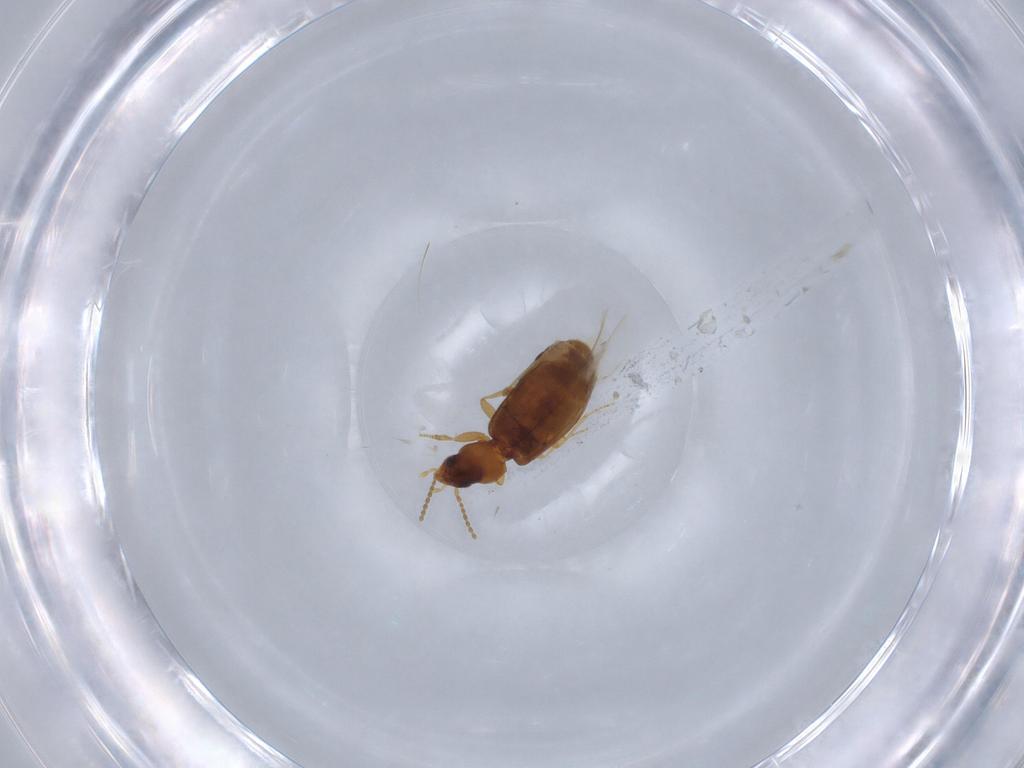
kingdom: Animalia
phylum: Arthropoda
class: Insecta
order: Coleoptera
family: Carabidae
